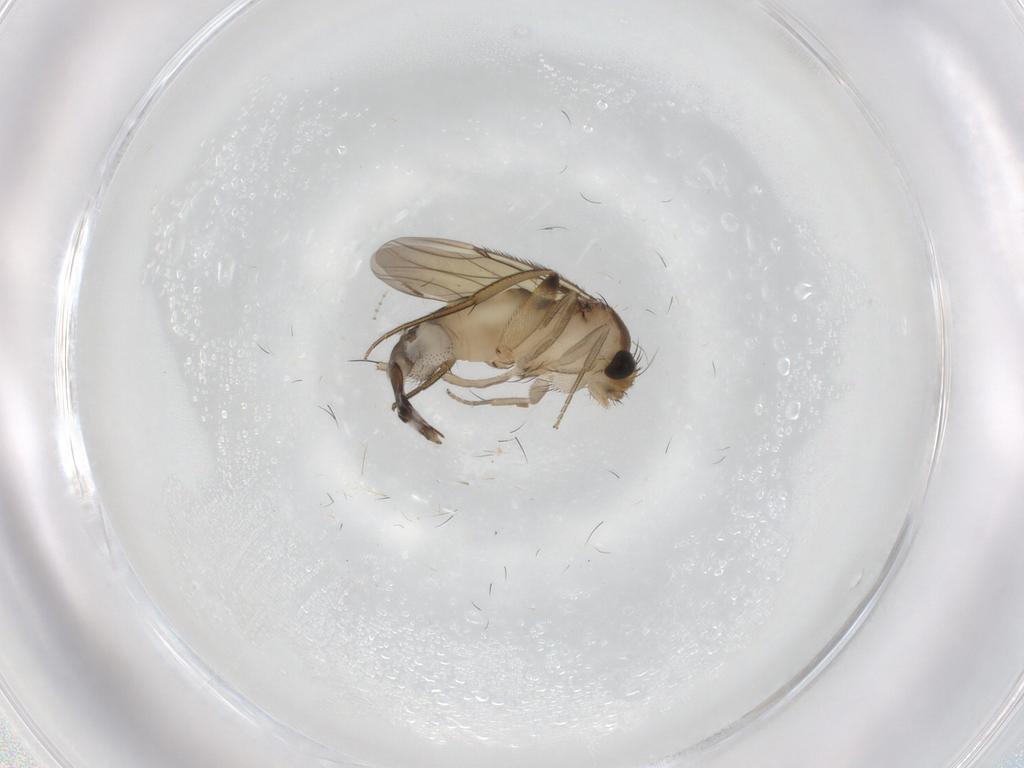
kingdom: Animalia
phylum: Arthropoda
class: Insecta
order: Diptera
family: Phoridae
